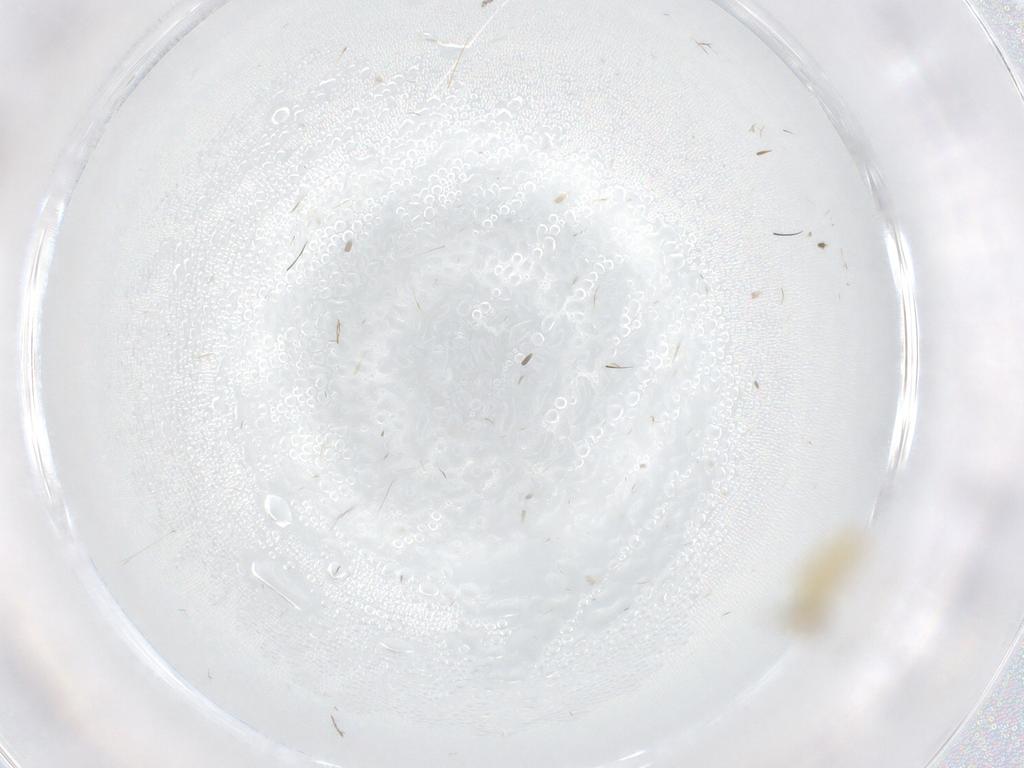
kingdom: Animalia
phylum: Arthropoda
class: Insecta
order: Diptera
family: Chironomidae
